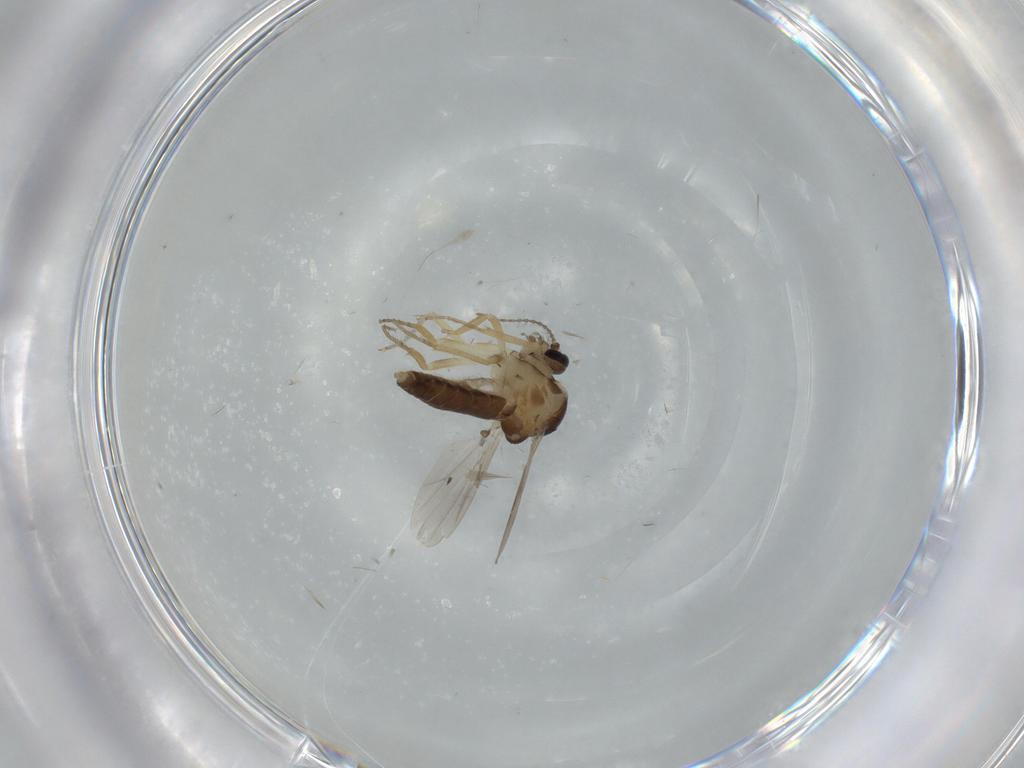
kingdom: Animalia
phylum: Arthropoda
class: Insecta
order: Diptera
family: Ceratopogonidae
